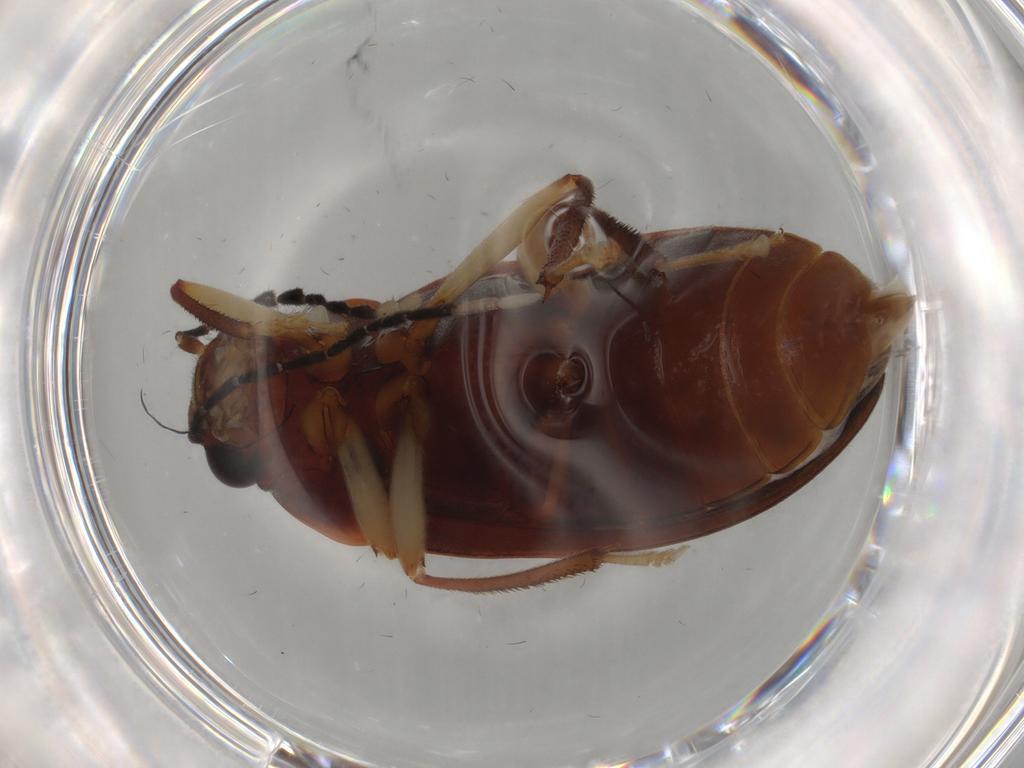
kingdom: Animalia
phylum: Arthropoda
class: Insecta
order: Coleoptera
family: Ptilodactylidae
